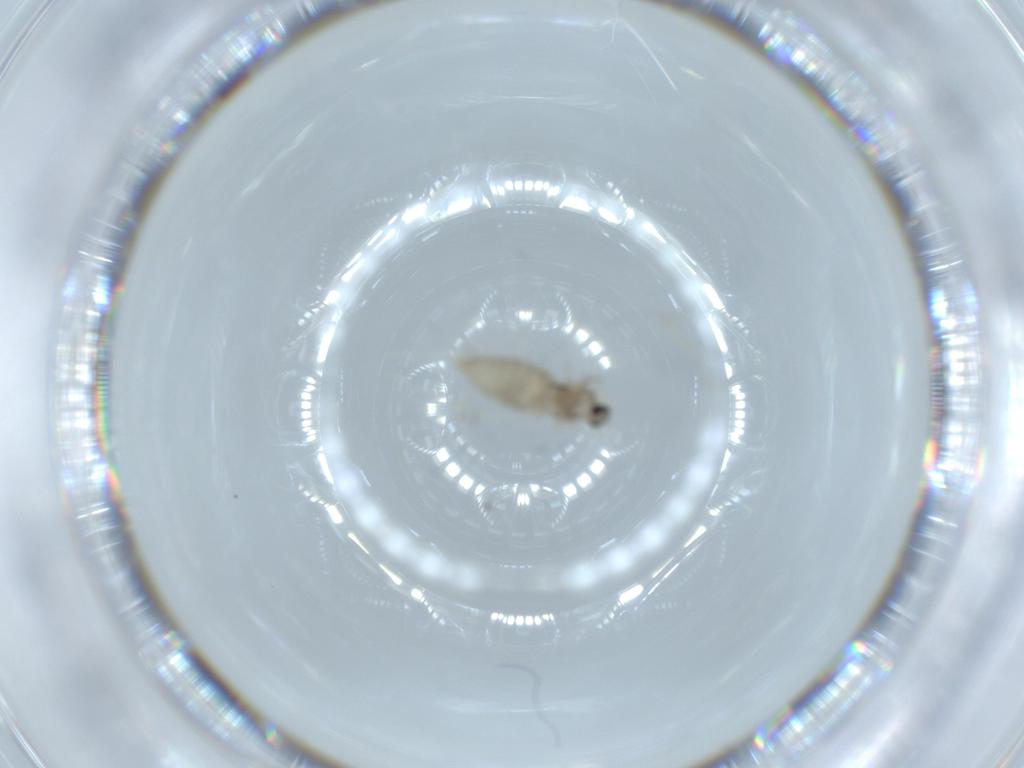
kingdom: Animalia
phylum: Arthropoda
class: Insecta
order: Diptera
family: Cecidomyiidae
